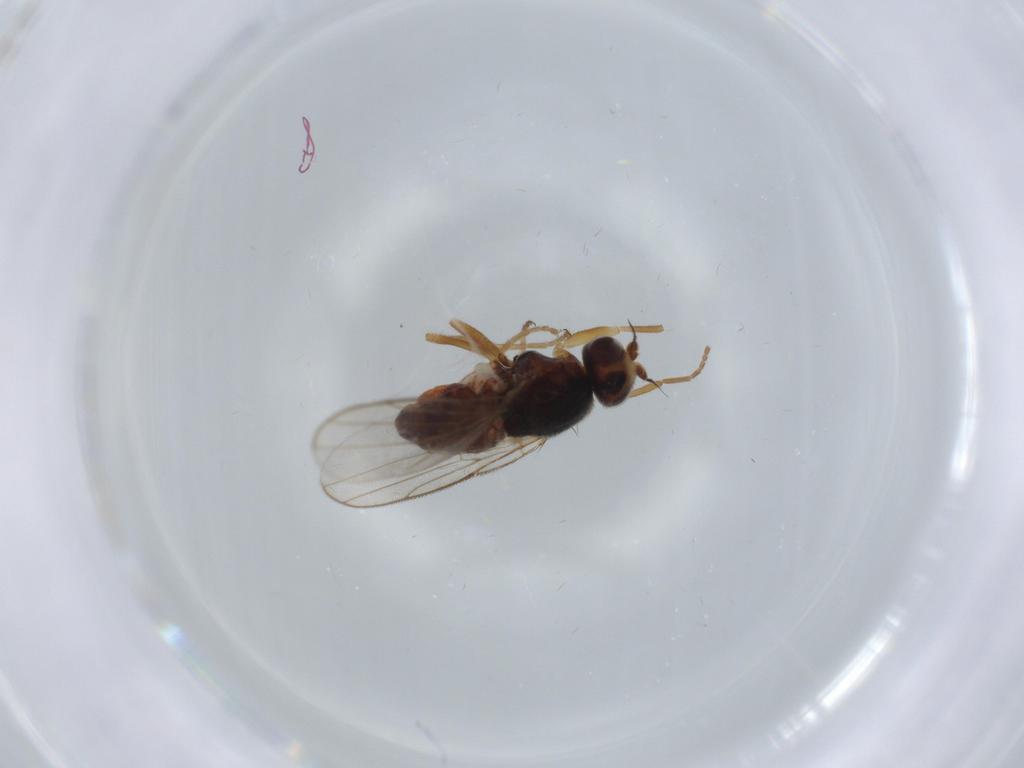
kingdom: Animalia
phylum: Arthropoda
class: Insecta
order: Diptera
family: Chloropidae
